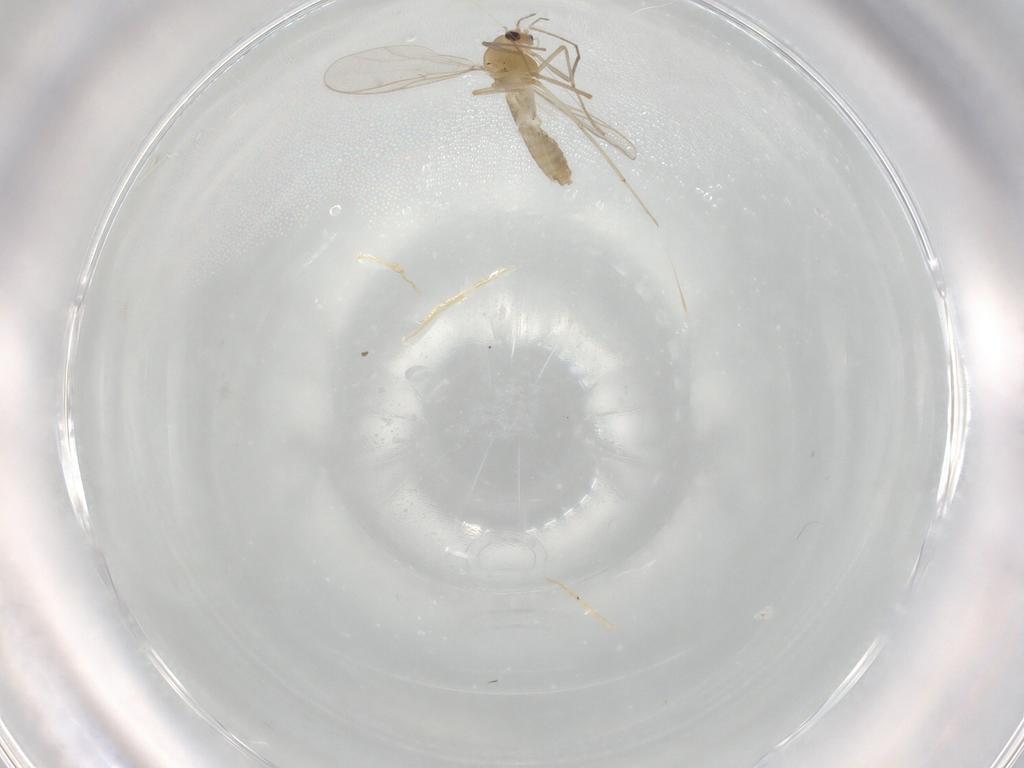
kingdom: Animalia
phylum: Arthropoda
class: Insecta
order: Diptera
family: Chironomidae
